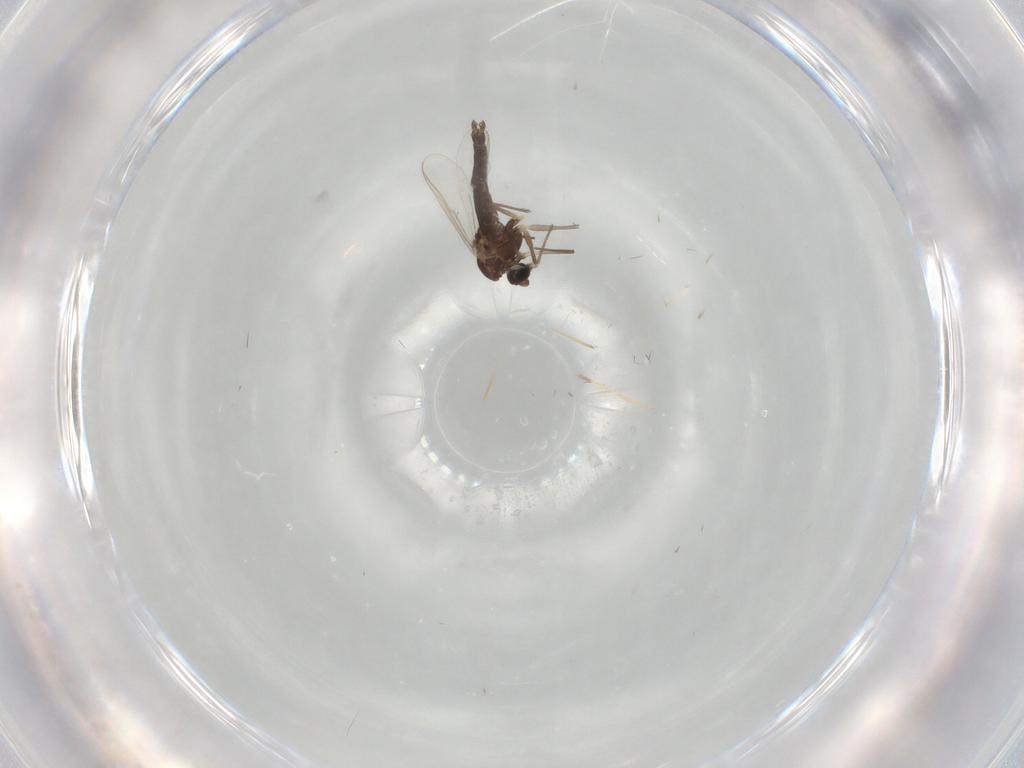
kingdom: Animalia
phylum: Arthropoda
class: Insecta
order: Diptera
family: Chironomidae
